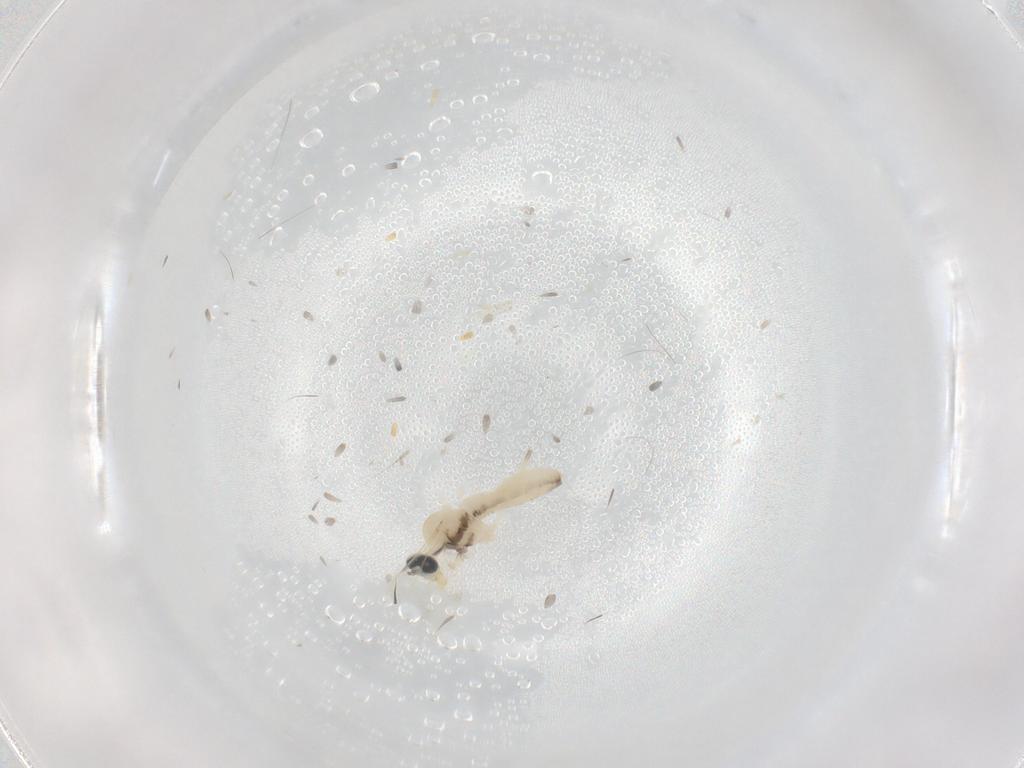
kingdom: Animalia
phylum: Arthropoda
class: Insecta
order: Diptera
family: Cecidomyiidae
